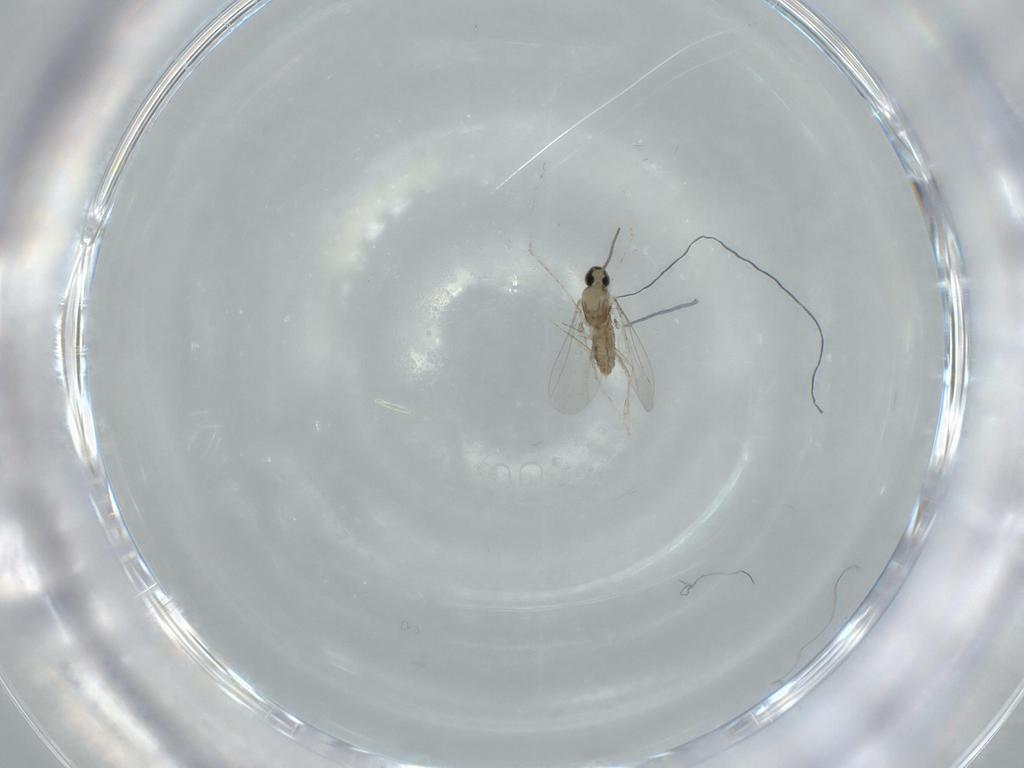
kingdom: Animalia
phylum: Arthropoda
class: Insecta
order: Diptera
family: Cecidomyiidae
